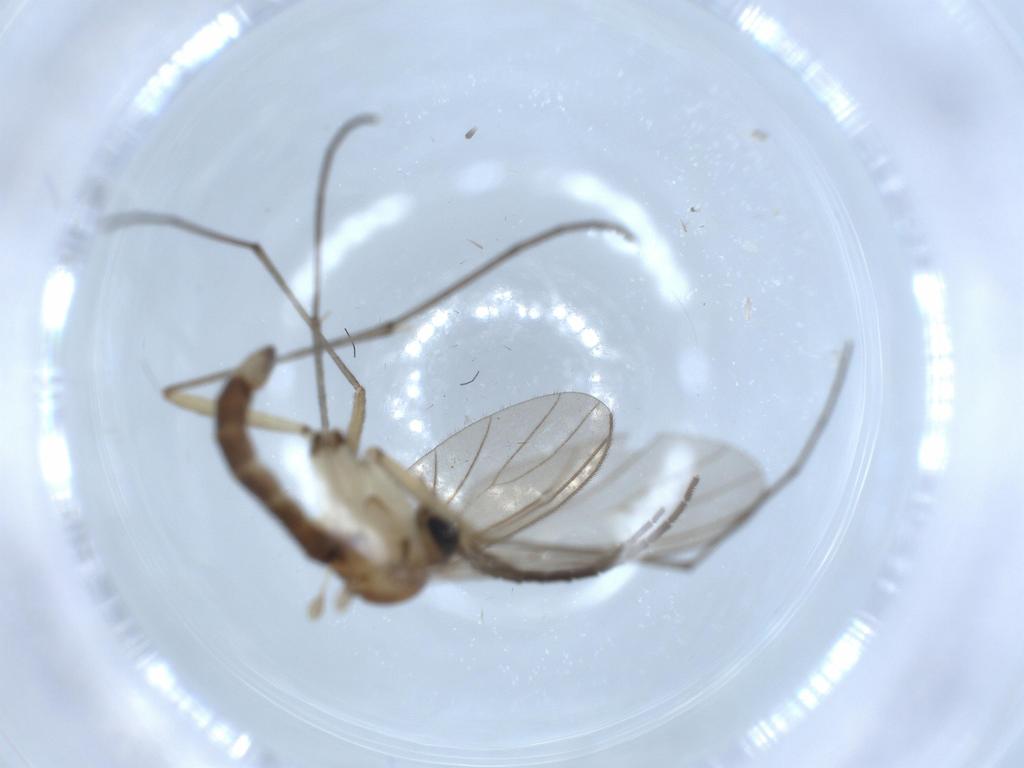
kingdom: Animalia
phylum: Arthropoda
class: Insecta
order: Diptera
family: Sciaridae
